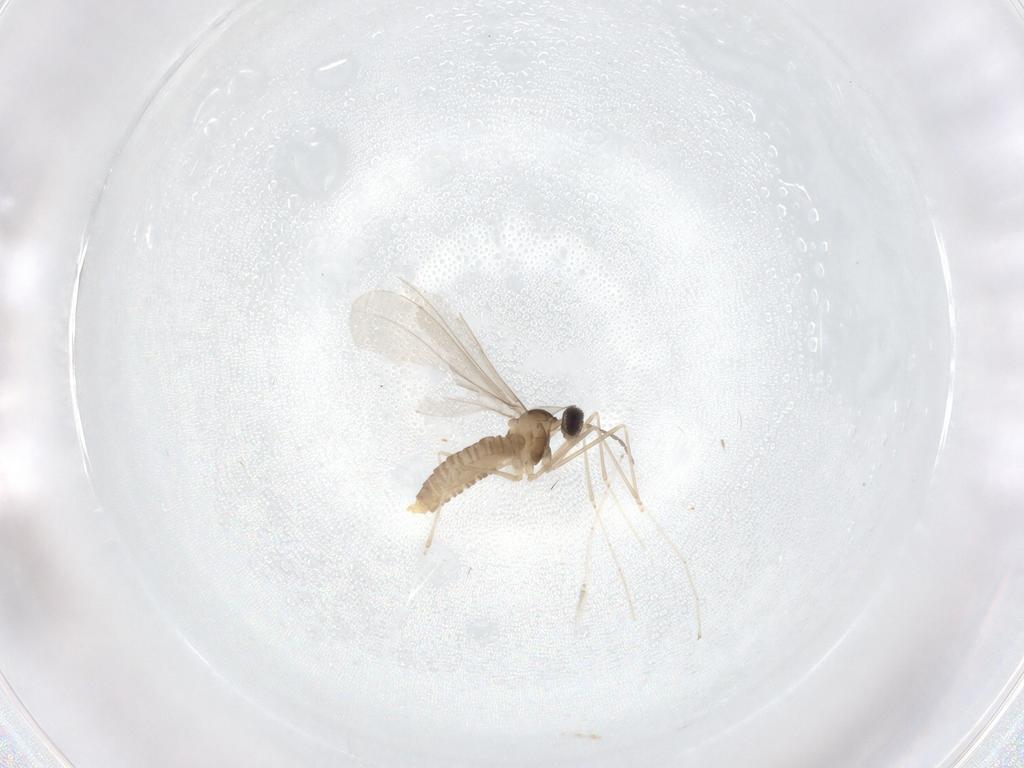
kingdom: Animalia
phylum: Arthropoda
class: Insecta
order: Diptera
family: Cecidomyiidae
